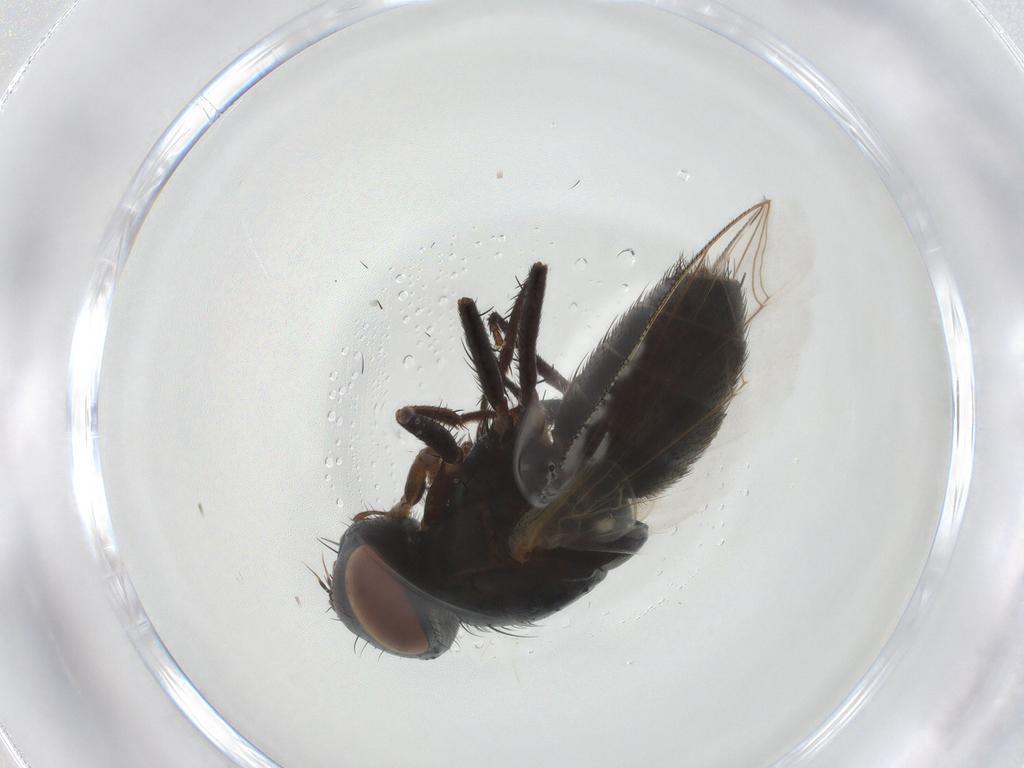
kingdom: Animalia
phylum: Arthropoda
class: Insecta
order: Diptera
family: Sarcophagidae
